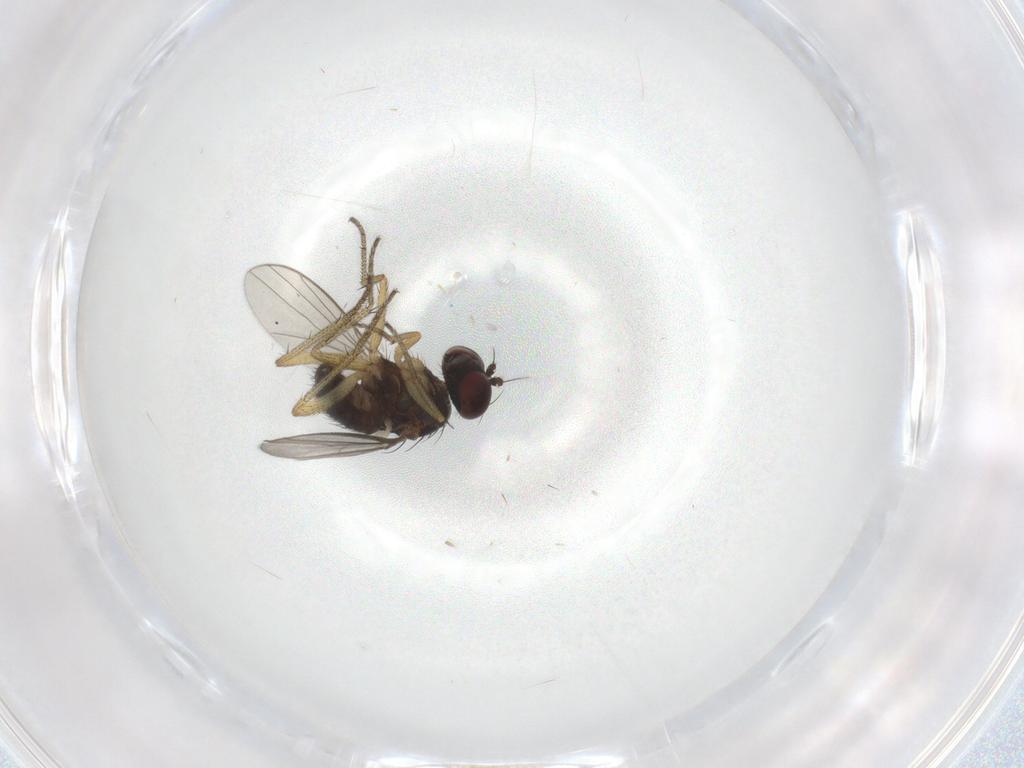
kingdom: Animalia
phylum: Arthropoda
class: Insecta
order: Diptera
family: Dolichopodidae
